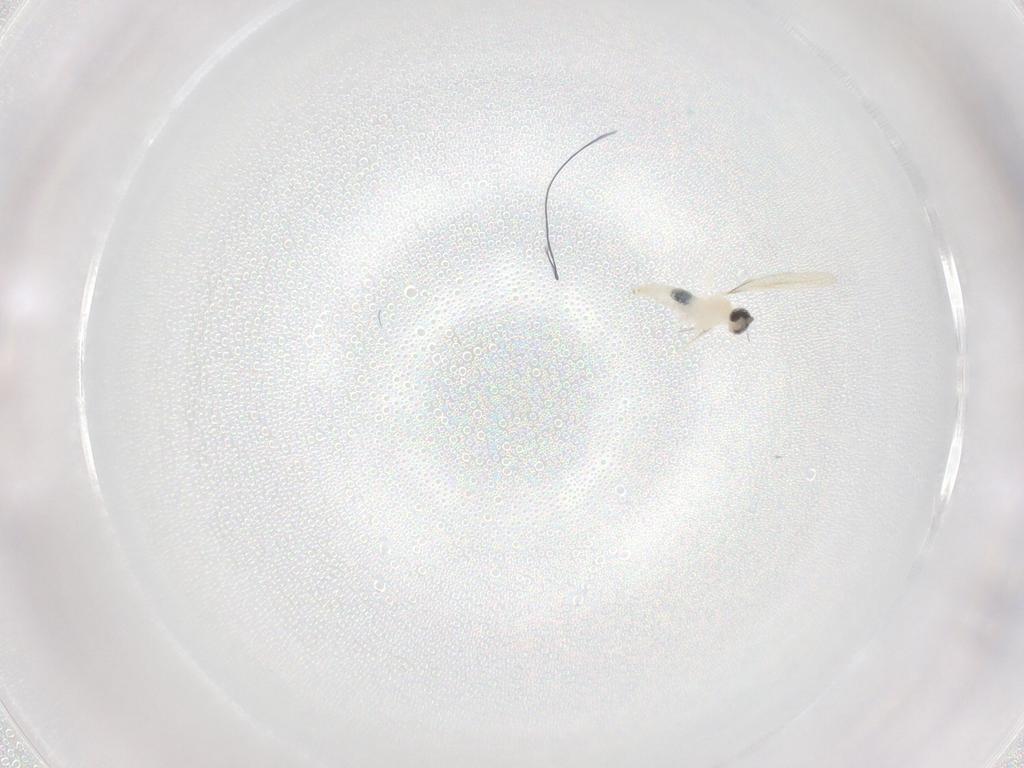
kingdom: Animalia
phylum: Arthropoda
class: Insecta
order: Diptera
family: Cecidomyiidae
